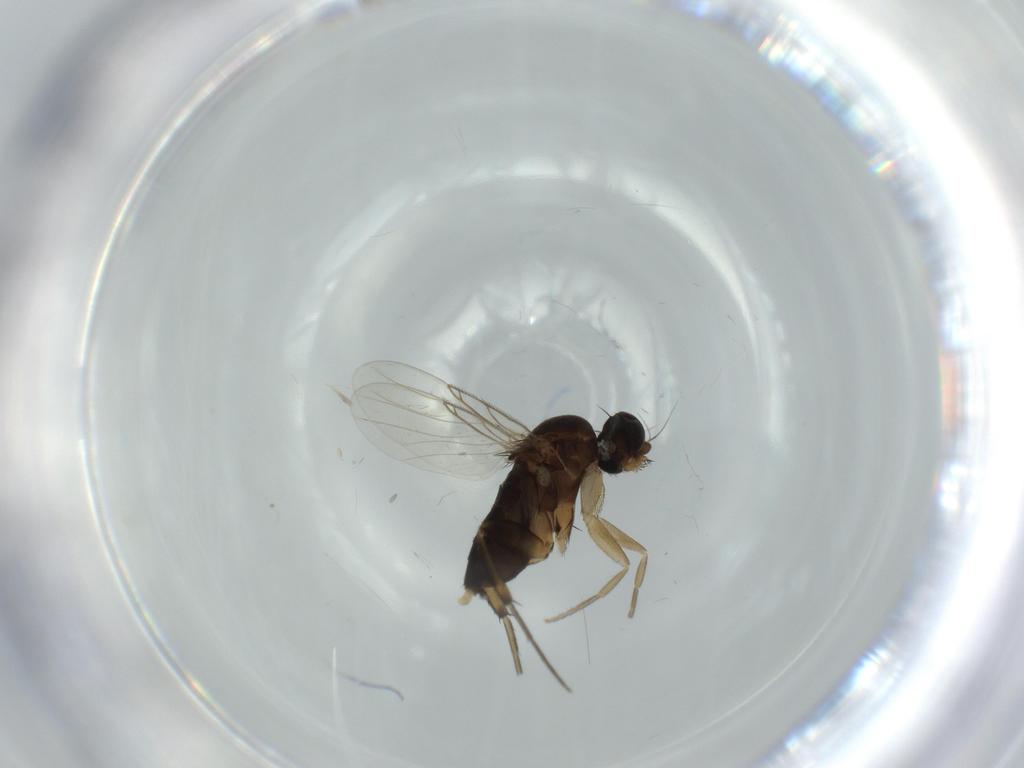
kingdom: Animalia
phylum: Arthropoda
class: Insecta
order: Diptera
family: Phoridae
